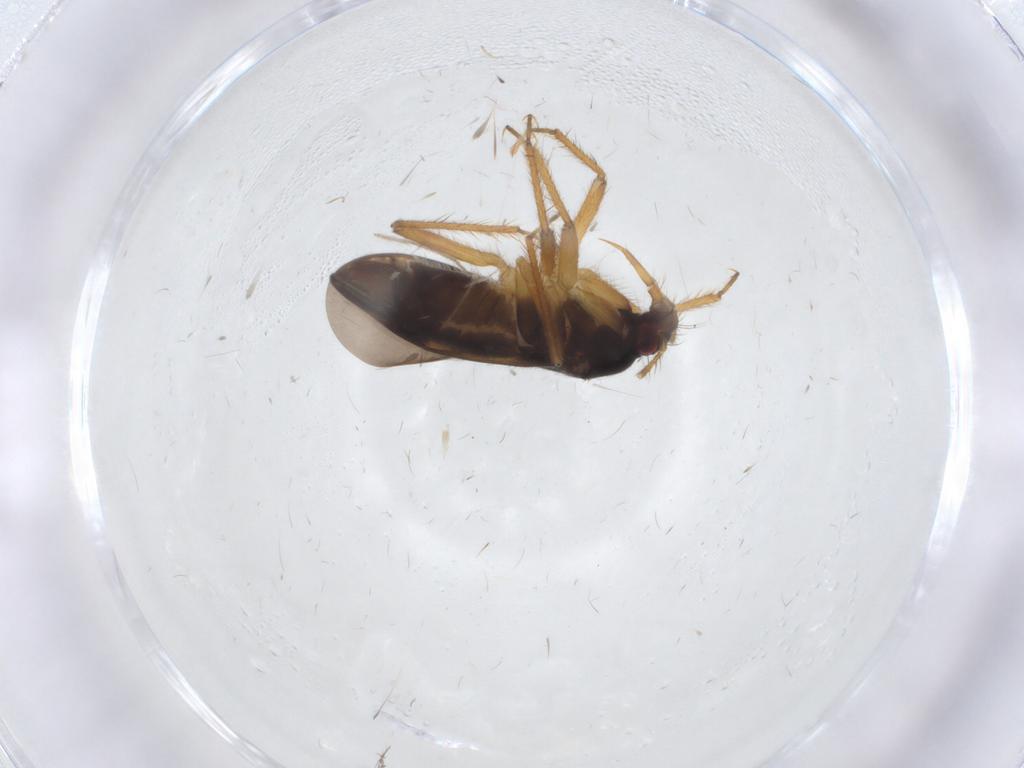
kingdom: Animalia
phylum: Arthropoda
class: Insecta
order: Hemiptera
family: Ceratocombidae
